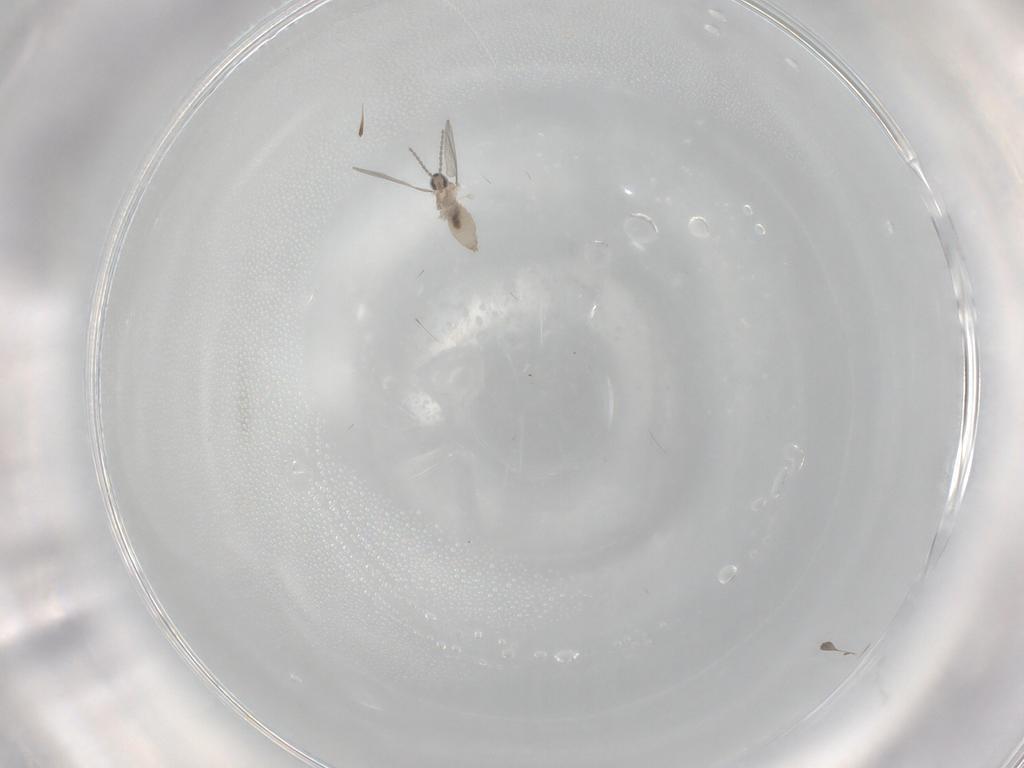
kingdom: Animalia
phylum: Arthropoda
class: Insecta
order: Diptera
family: Cecidomyiidae
